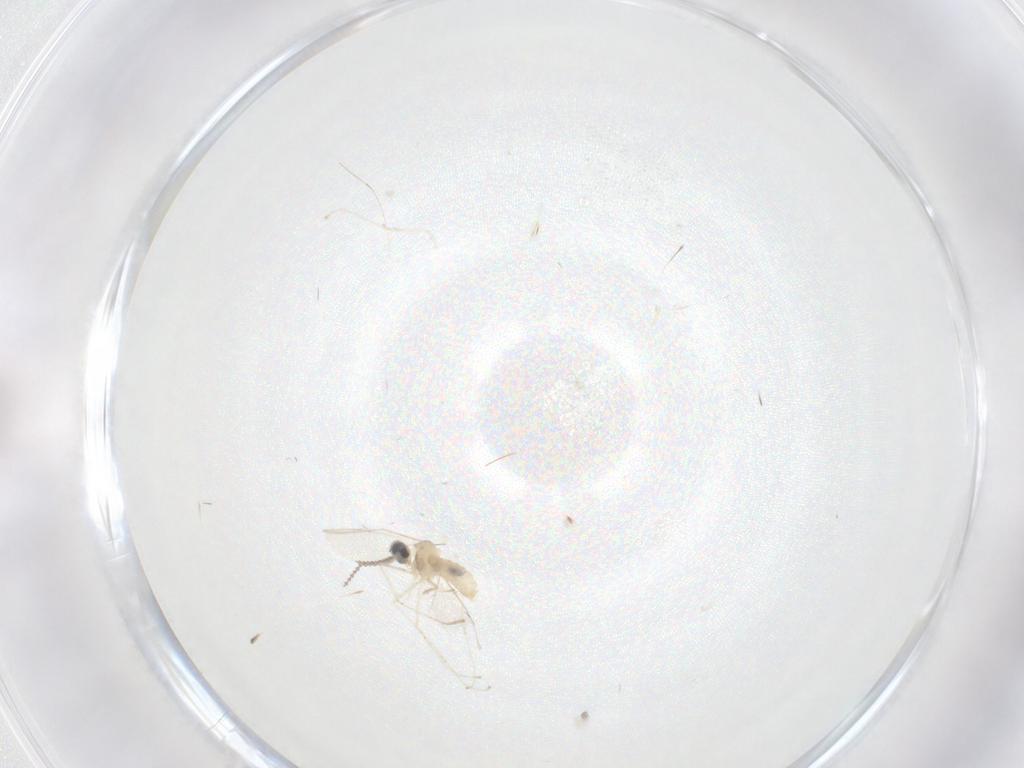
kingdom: Animalia
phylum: Arthropoda
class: Insecta
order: Diptera
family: Cecidomyiidae
